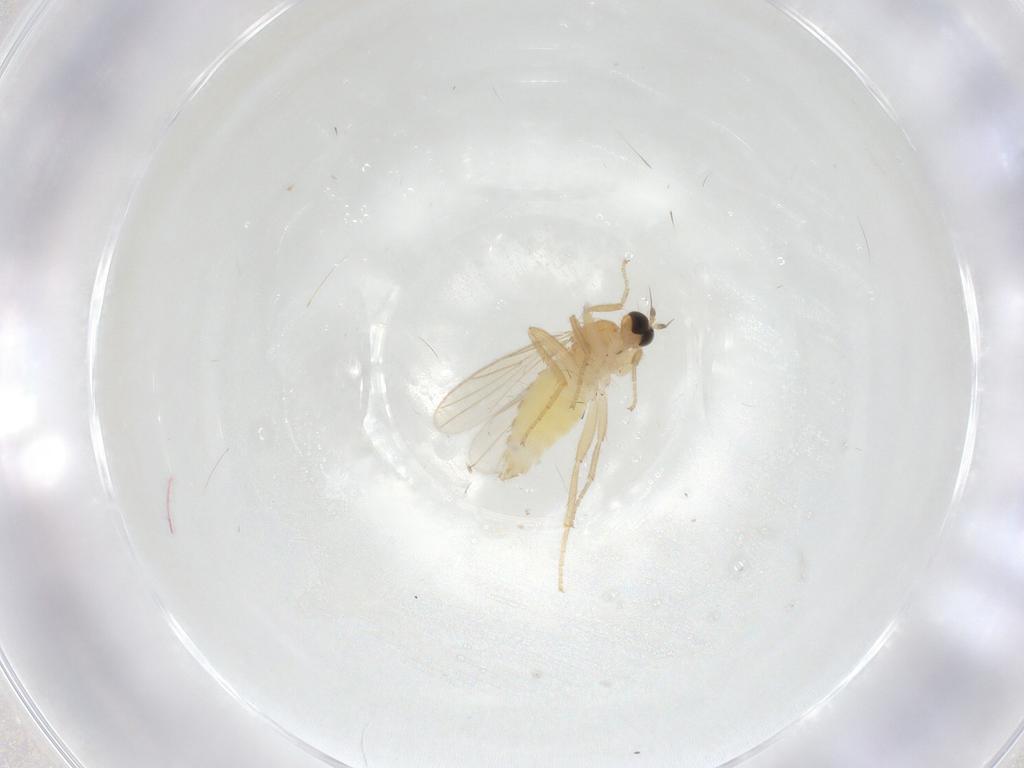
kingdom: Animalia
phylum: Arthropoda
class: Insecta
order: Diptera
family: Hybotidae
